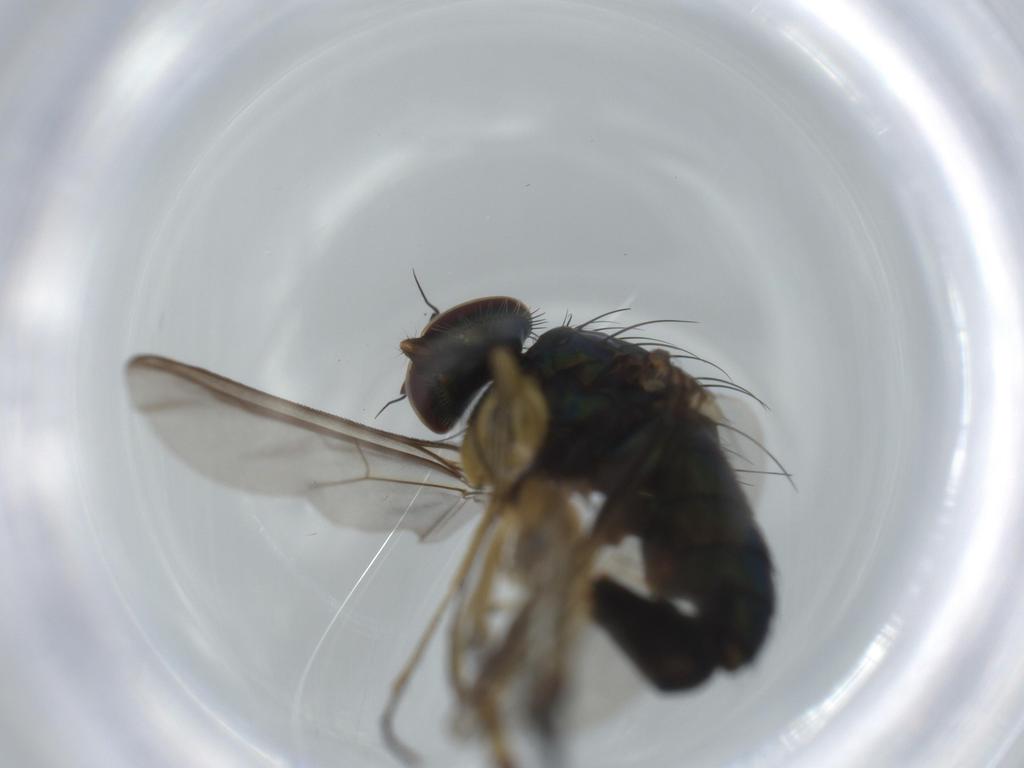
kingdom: Animalia
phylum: Arthropoda
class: Insecta
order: Diptera
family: Dolichopodidae
